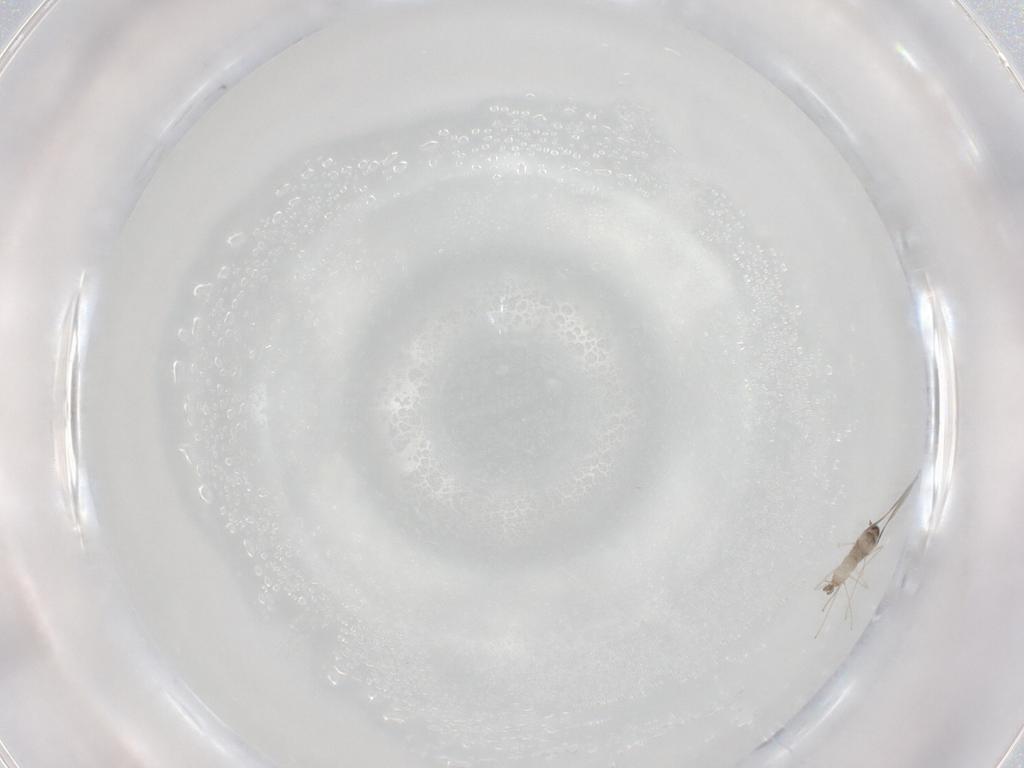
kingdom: Animalia
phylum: Arthropoda
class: Insecta
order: Diptera
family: Cecidomyiidae
